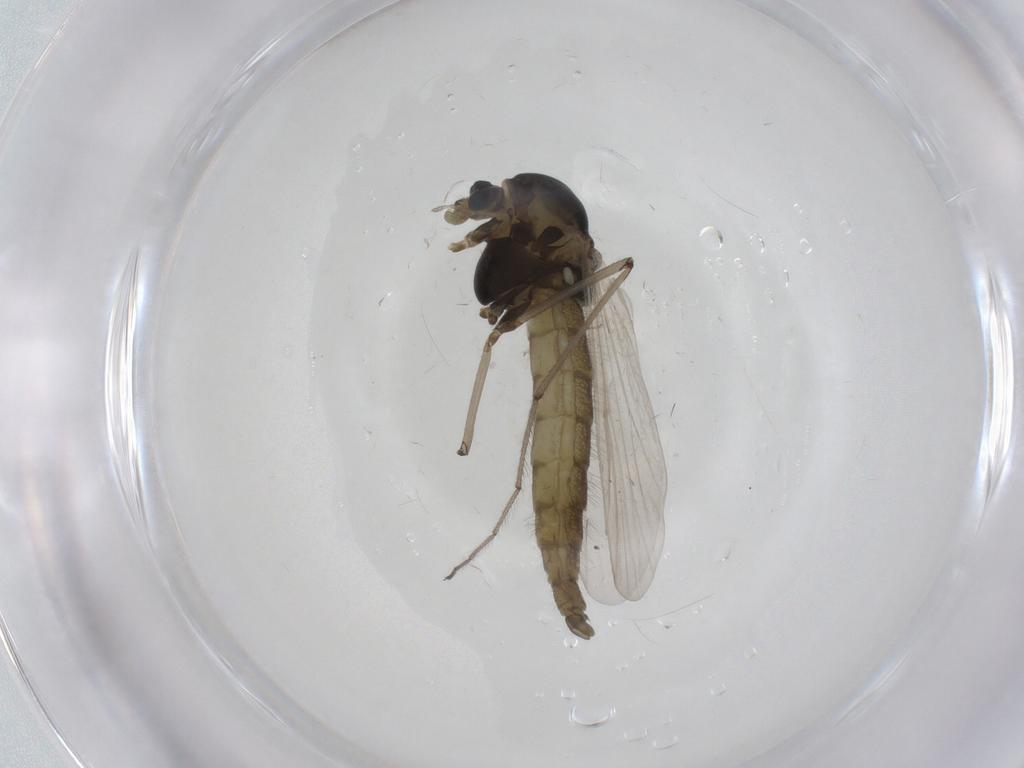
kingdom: Animalia
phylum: Arthropoda
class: Insecta
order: Diptera
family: Chloropidae
